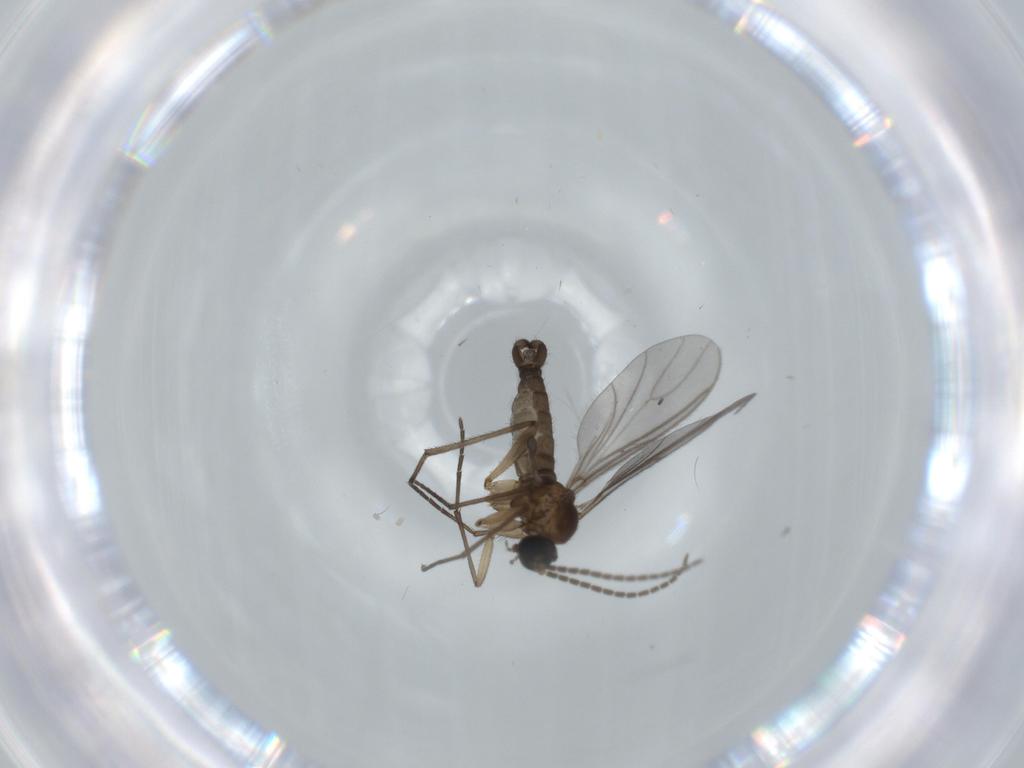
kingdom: Animalia
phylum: Arthropoda
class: Insecta
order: Diptera
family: Sciaridae
